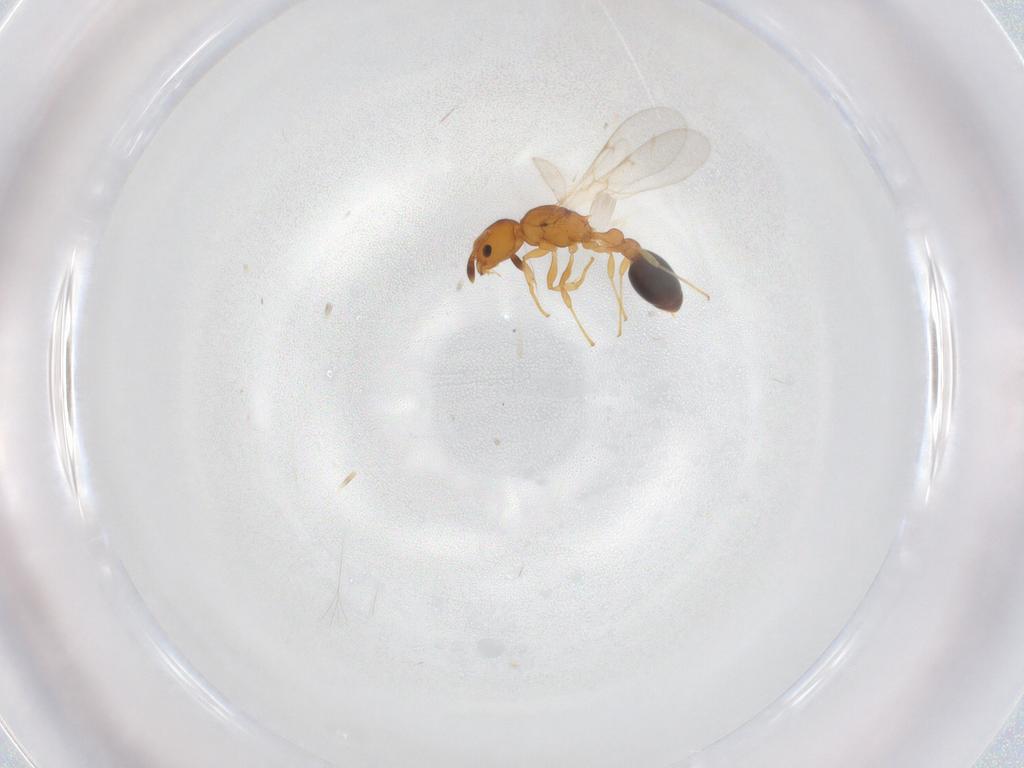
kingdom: Animalia
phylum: Arthropoda
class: Insecta
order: Hymenoptera
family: Formicidae
